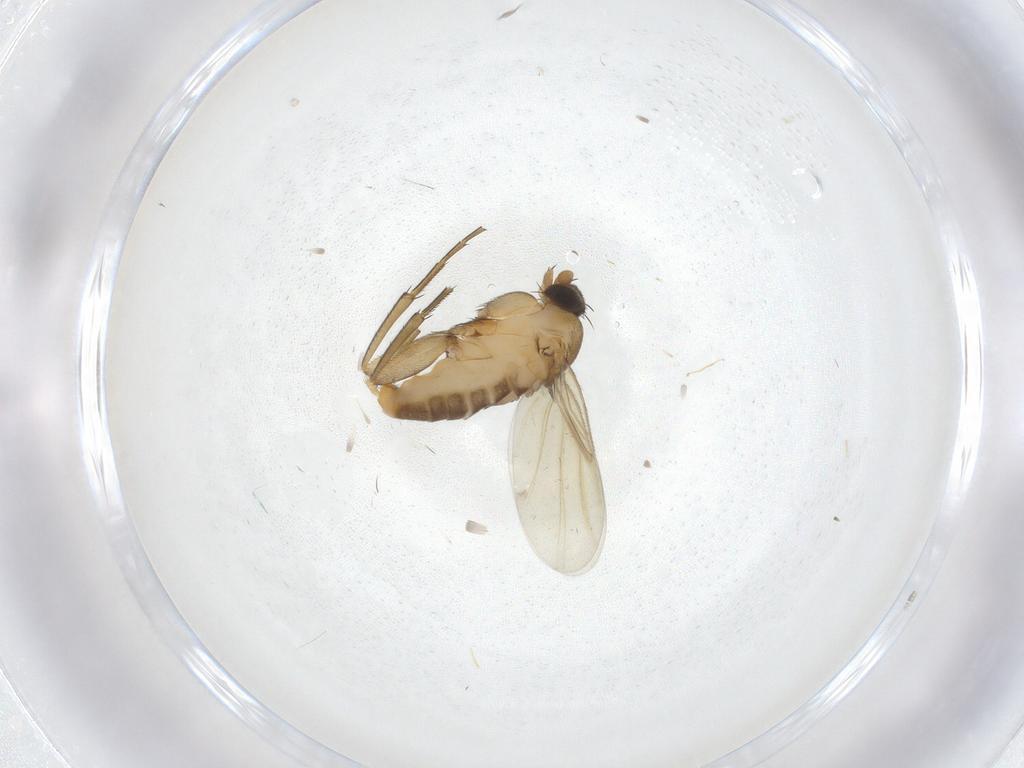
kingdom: Animalia
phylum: Arthropoda
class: Insecta
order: Diptera
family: Phoridae
